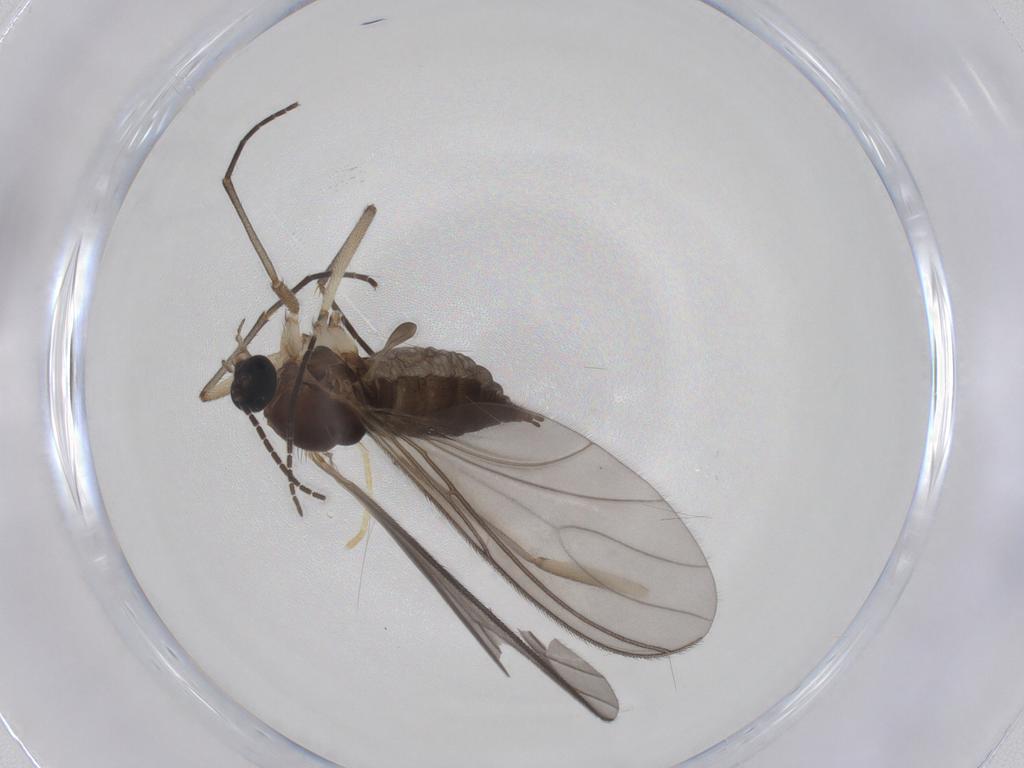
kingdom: Animalia
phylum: Arthropoda
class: Insecta
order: Diptera
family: Sciaridae
